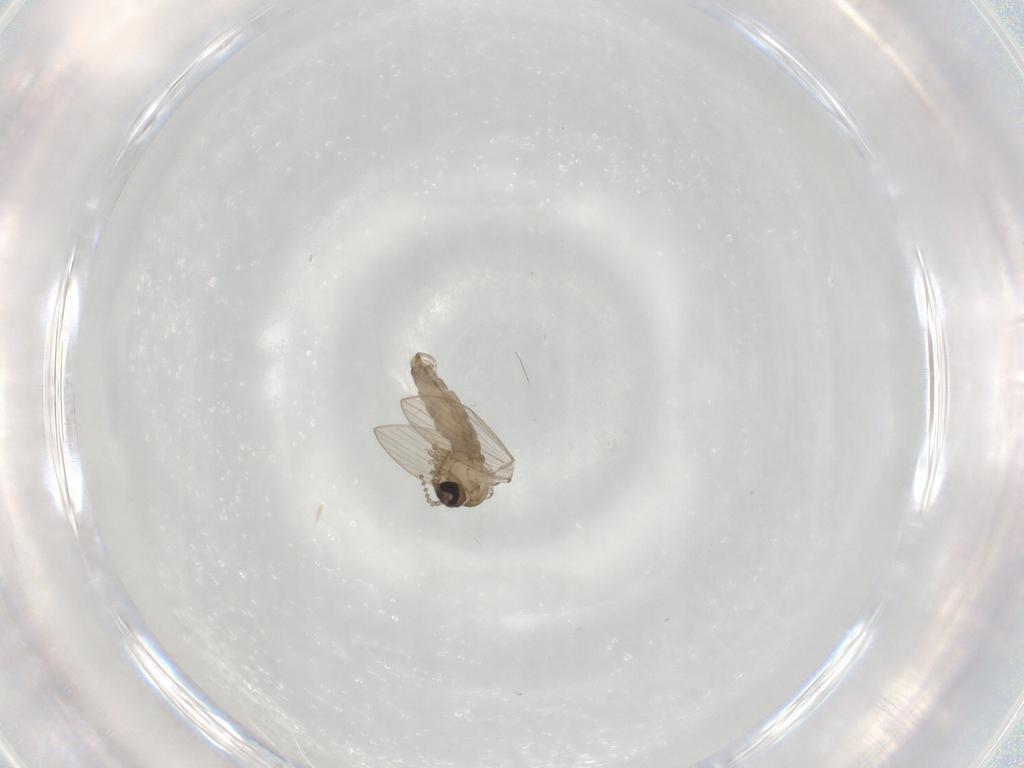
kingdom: Animalia
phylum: Arthropoda
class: Insecta
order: Diptera
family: Psychodidae
